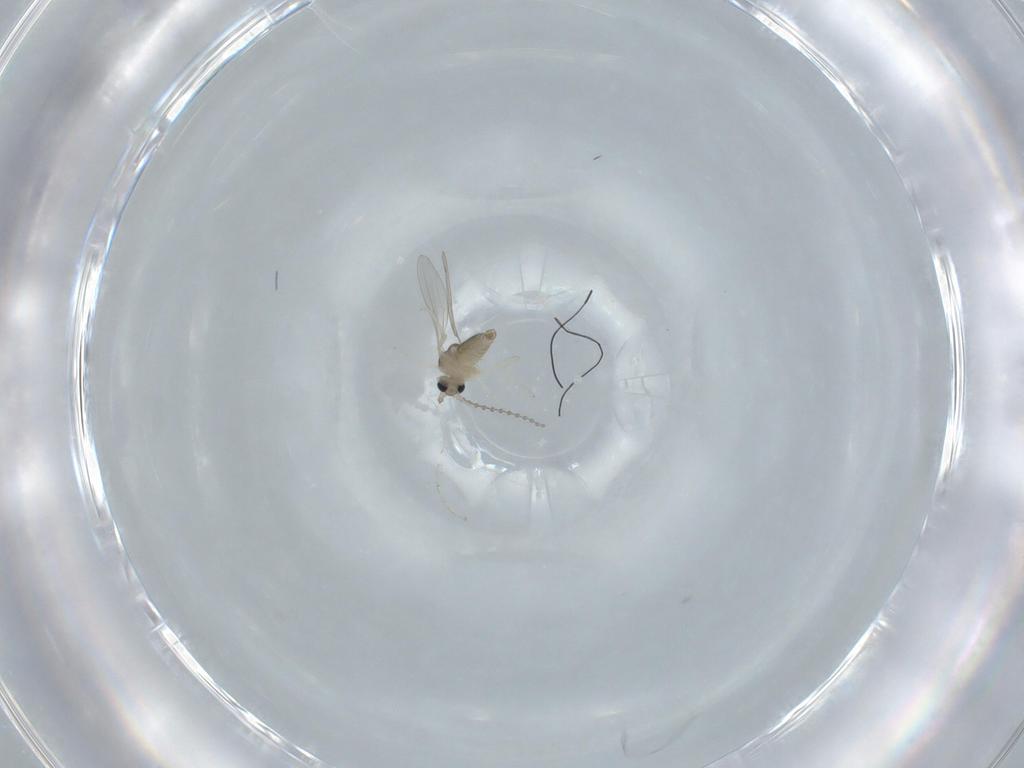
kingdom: Animalia
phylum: Arthropoda
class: Insecta
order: Diptera
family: Cecidomyiidae
